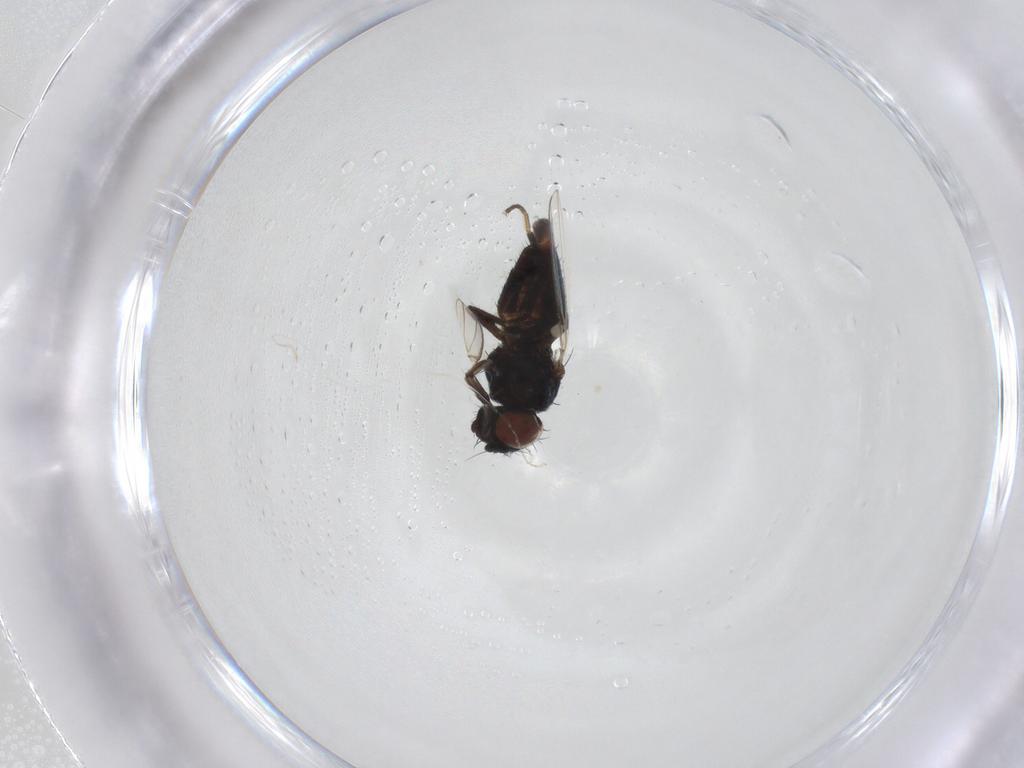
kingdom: Animalia
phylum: Arthropoda
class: Insecta
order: Diptera
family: Milichiidae
